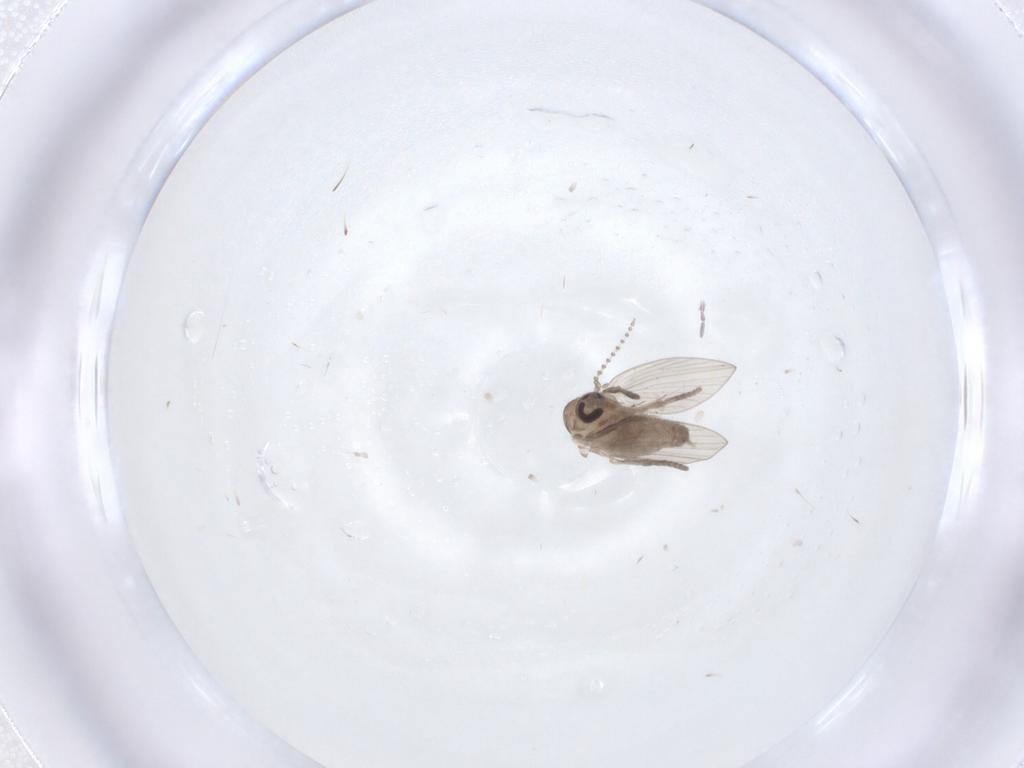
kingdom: Animalia
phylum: Arthropoda
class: Insecta
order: Diptera
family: Psychodidae
